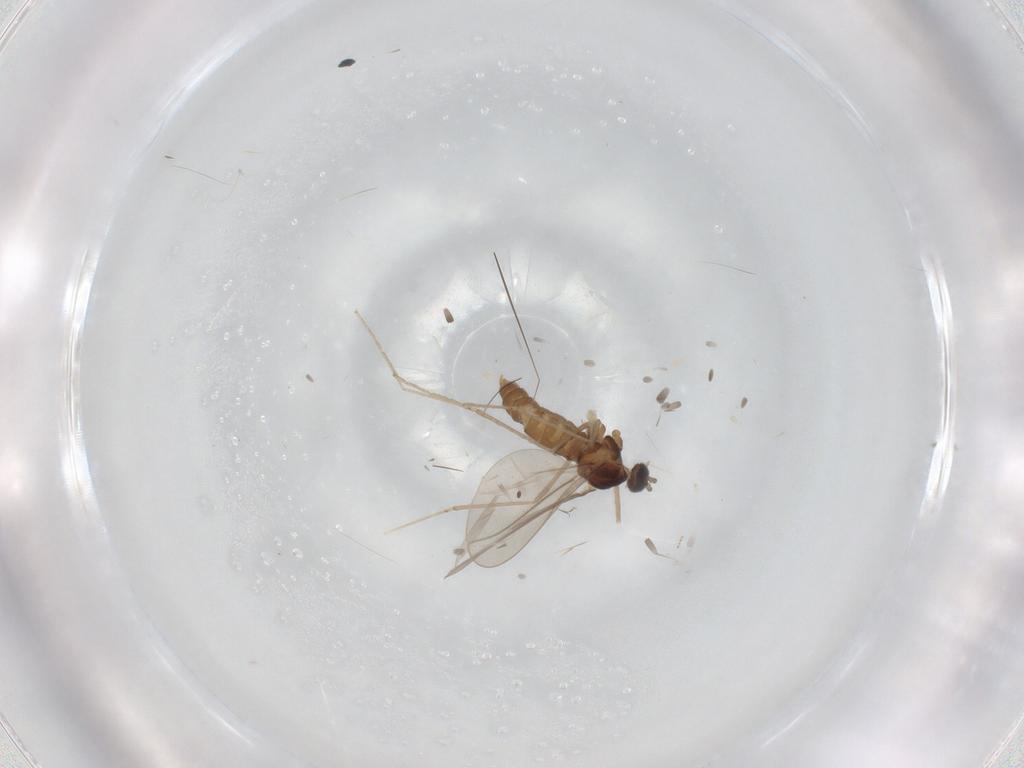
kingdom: Animalia
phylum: Arthropoda
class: Insecta
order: Diptera
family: Cecidomyiidae
